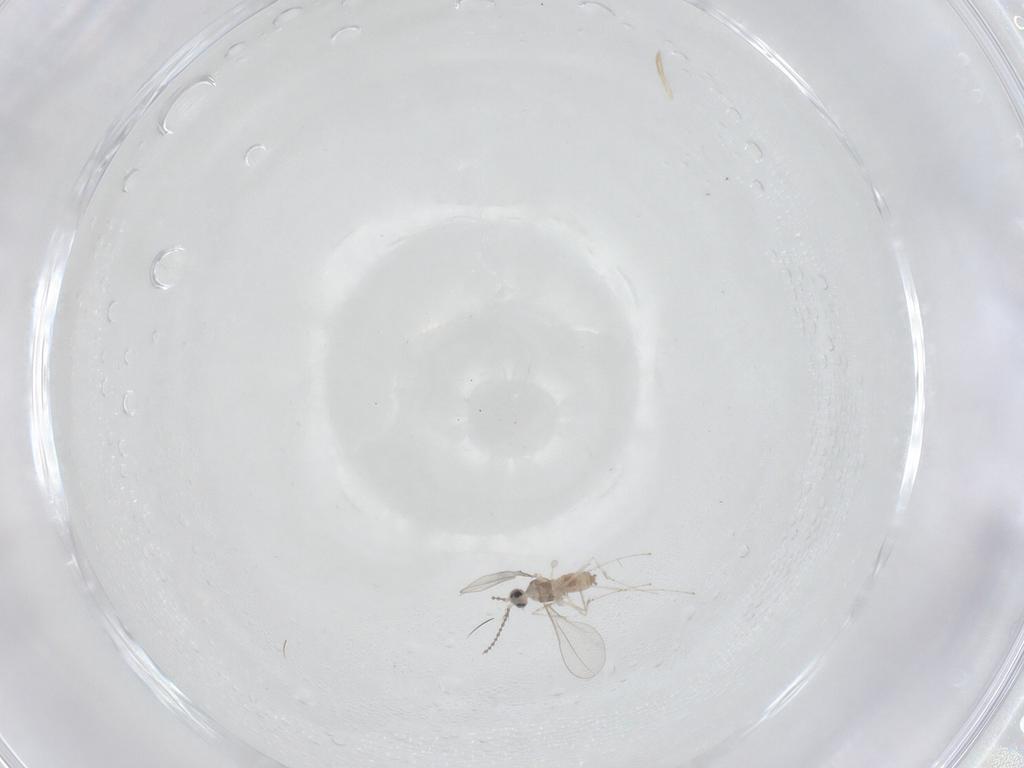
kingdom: Animalia
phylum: Arthropoda
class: Insecta
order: Diptera
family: Cecidomyiidae
